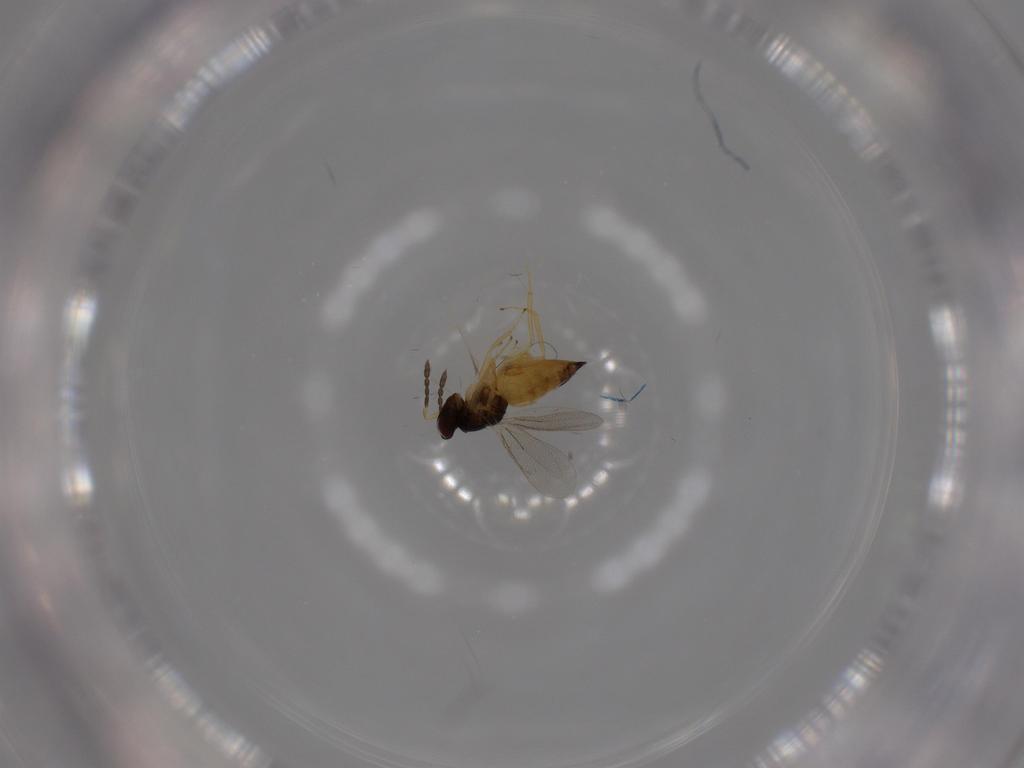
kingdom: Animalia
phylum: Arthropoda
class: Insecta
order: Hymenoptera
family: Eulophidae
